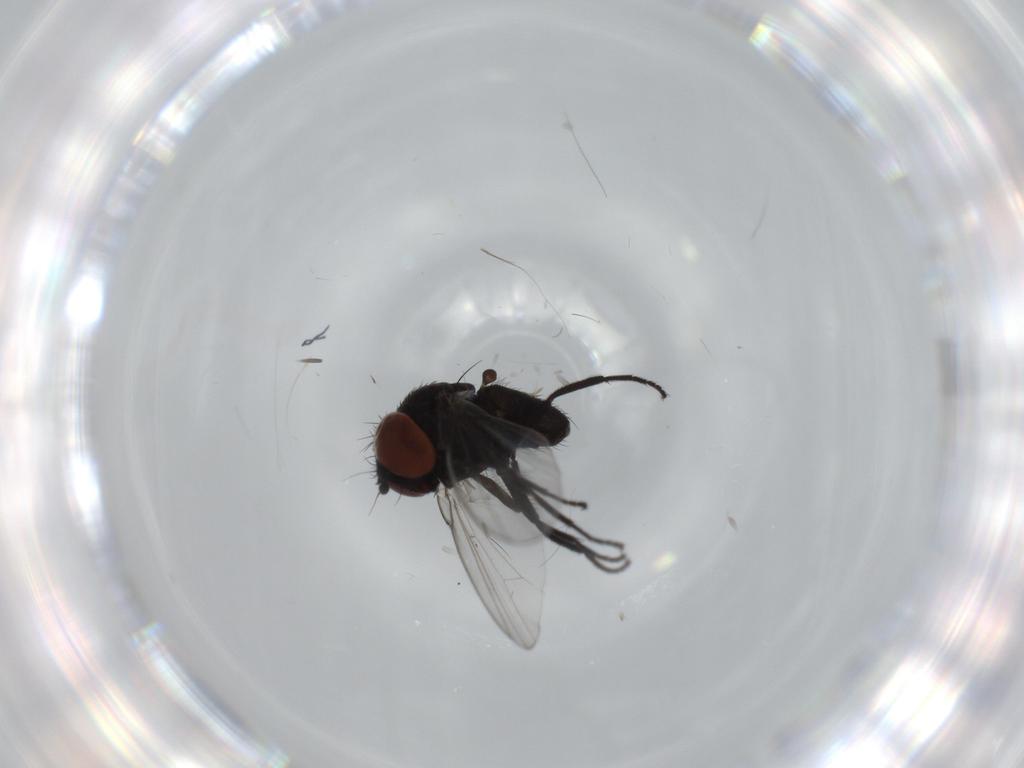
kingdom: Animalia
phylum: Arthropoda
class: Insecta
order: Diptera
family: Milichiidae
